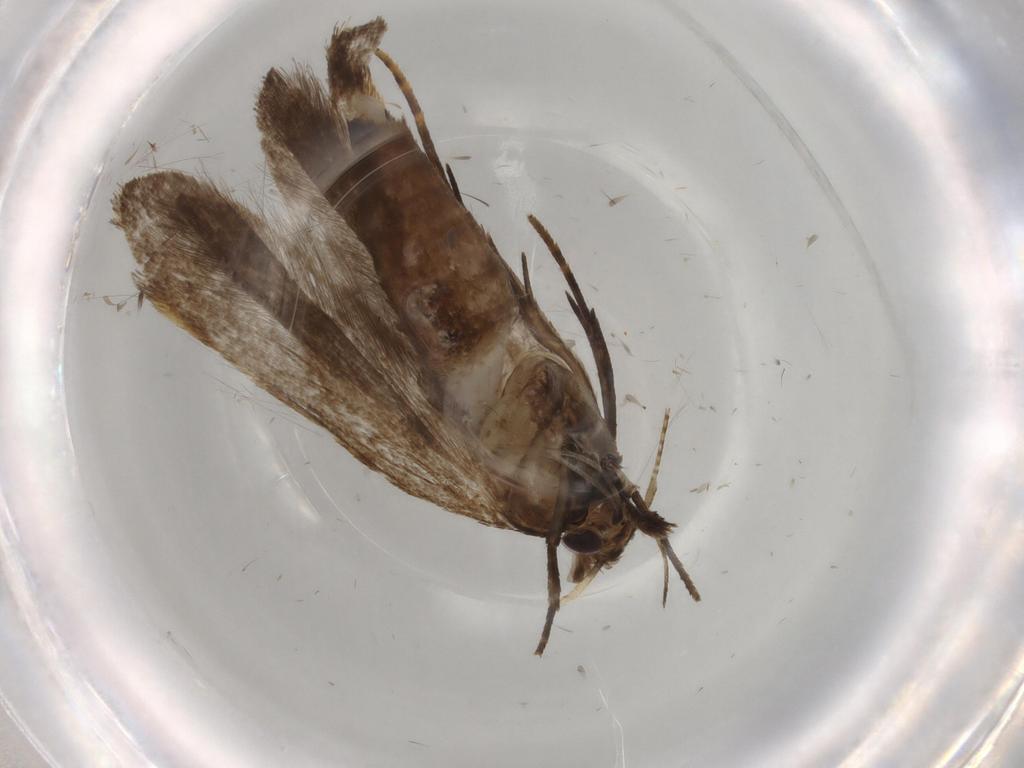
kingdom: Animalia
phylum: Arthropoda
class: Insecta
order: Lepidoptera
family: Gelechiidae
